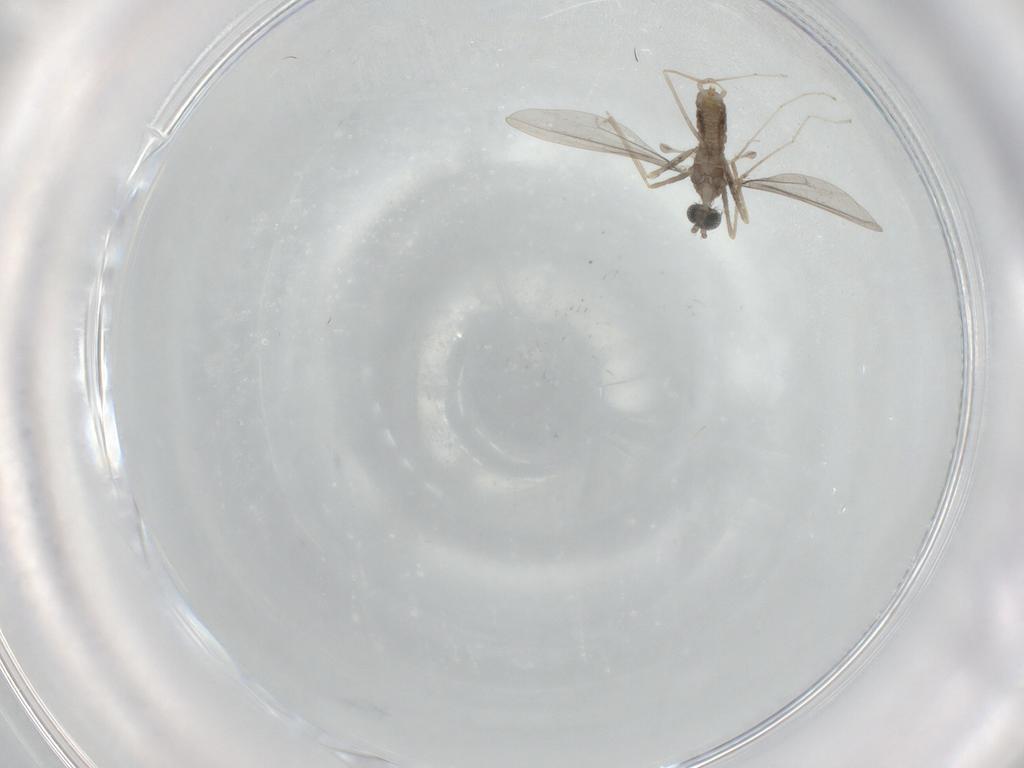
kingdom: Animalia
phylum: Arthropoda
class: Insecta
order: Diptera
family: Cecidomyiidae
